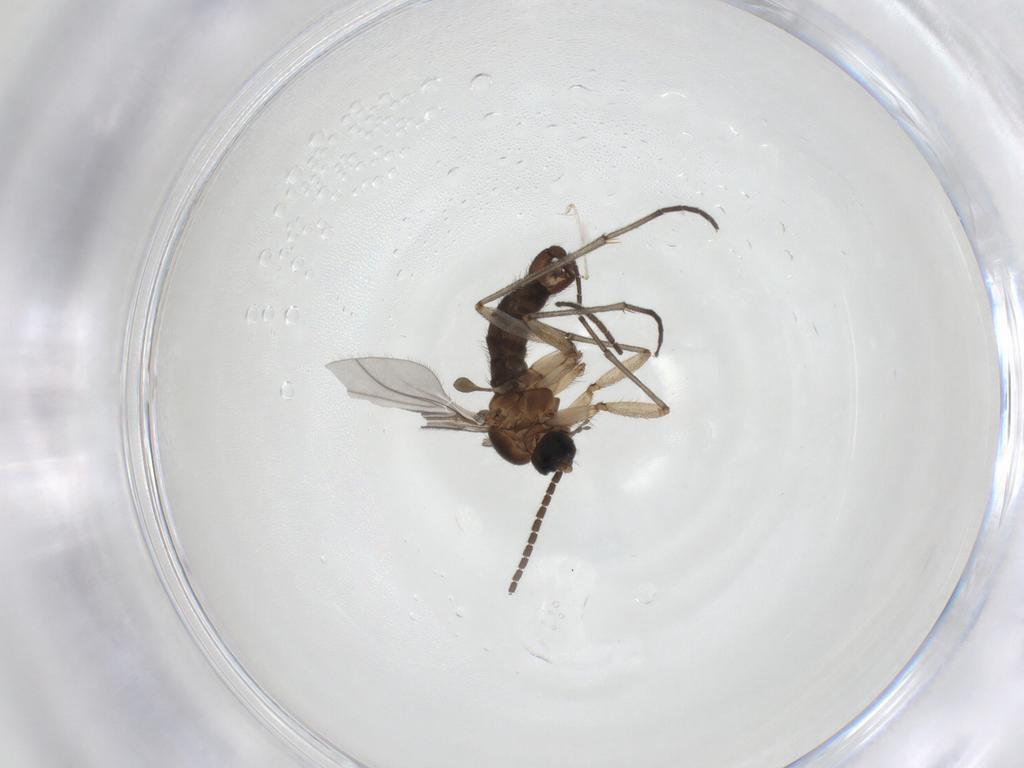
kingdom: Animalia
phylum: Arthropoda
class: Insecta
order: Diptera
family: Sciaridae
